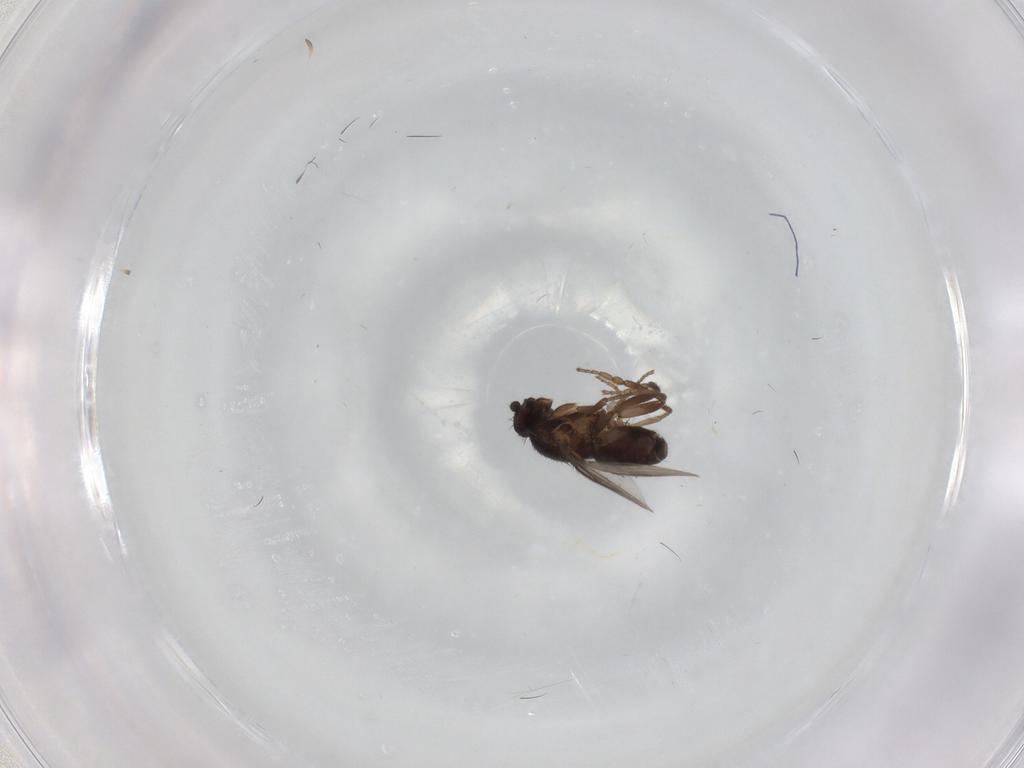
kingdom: Animalia
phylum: Arthropoda
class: Insecta
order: Diptera
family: Sphaeroceridae
